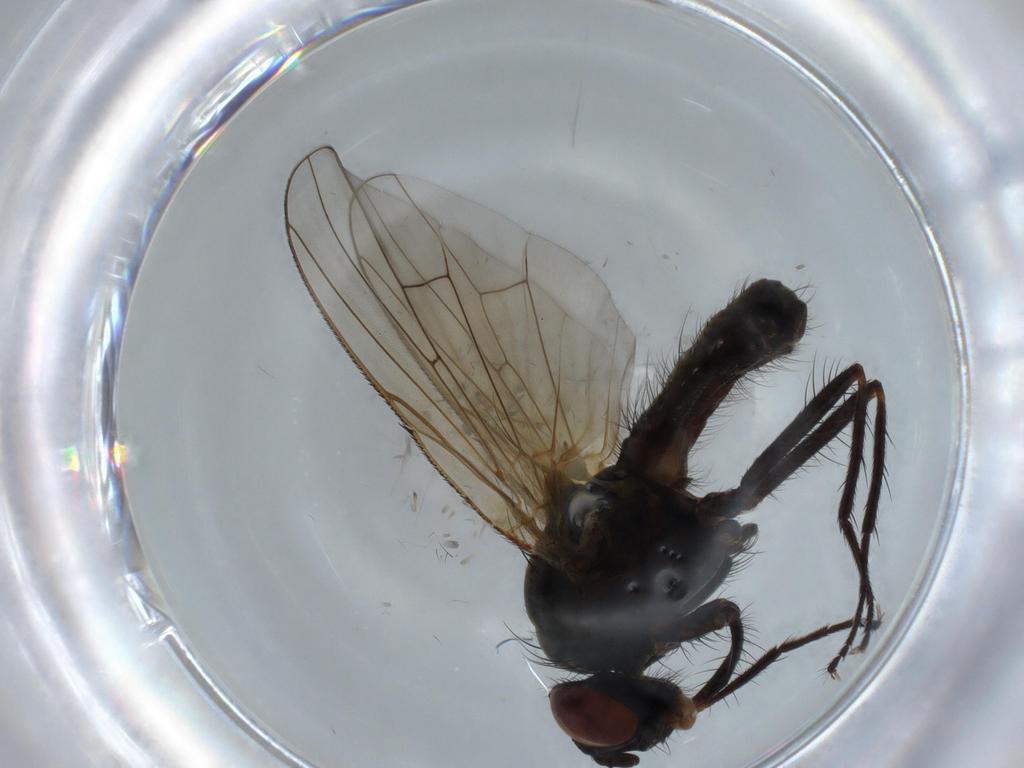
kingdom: Animalia
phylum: Arthropoda
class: Insecta
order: Diptera
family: Anthomyiidae
